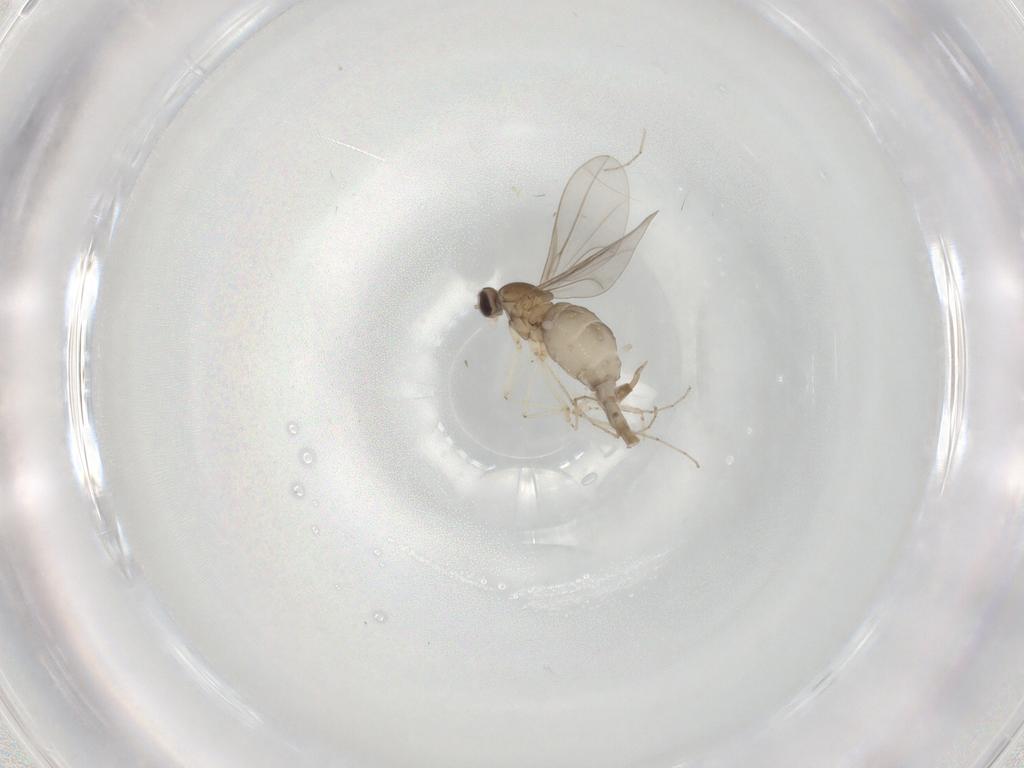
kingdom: Animalia
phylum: Arthropoda
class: Insecta
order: Diptera
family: Cecidomyiidae
